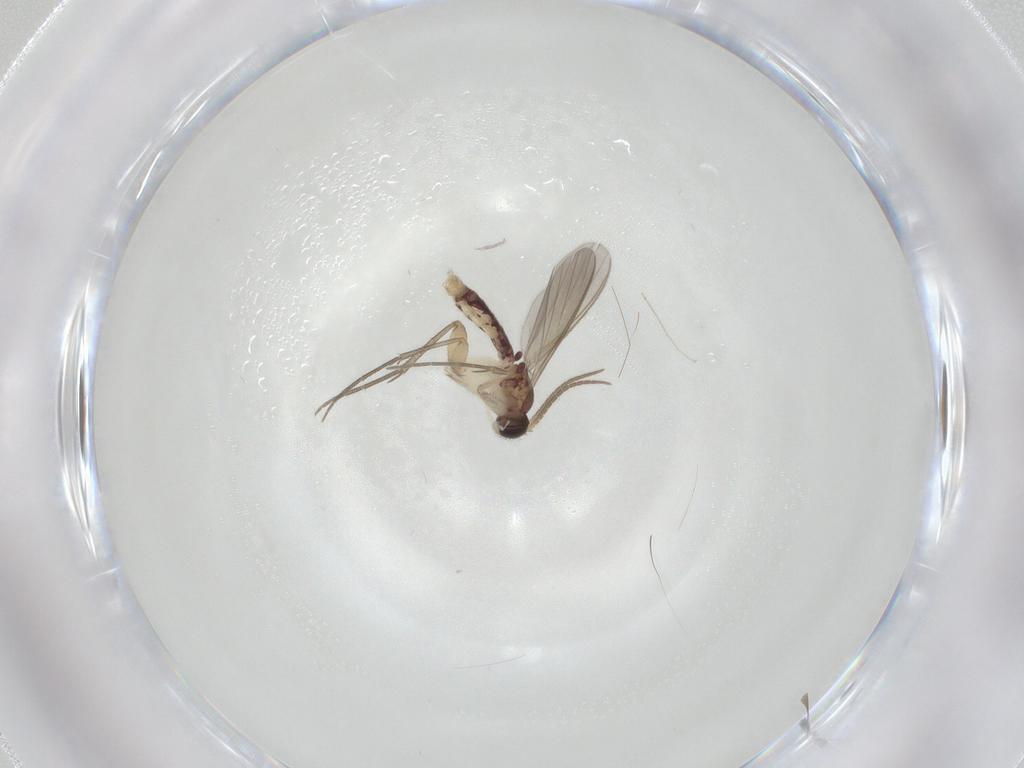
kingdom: Animalia
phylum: Arthropoda
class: Insecta
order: Diptera
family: Mycetophilidae
